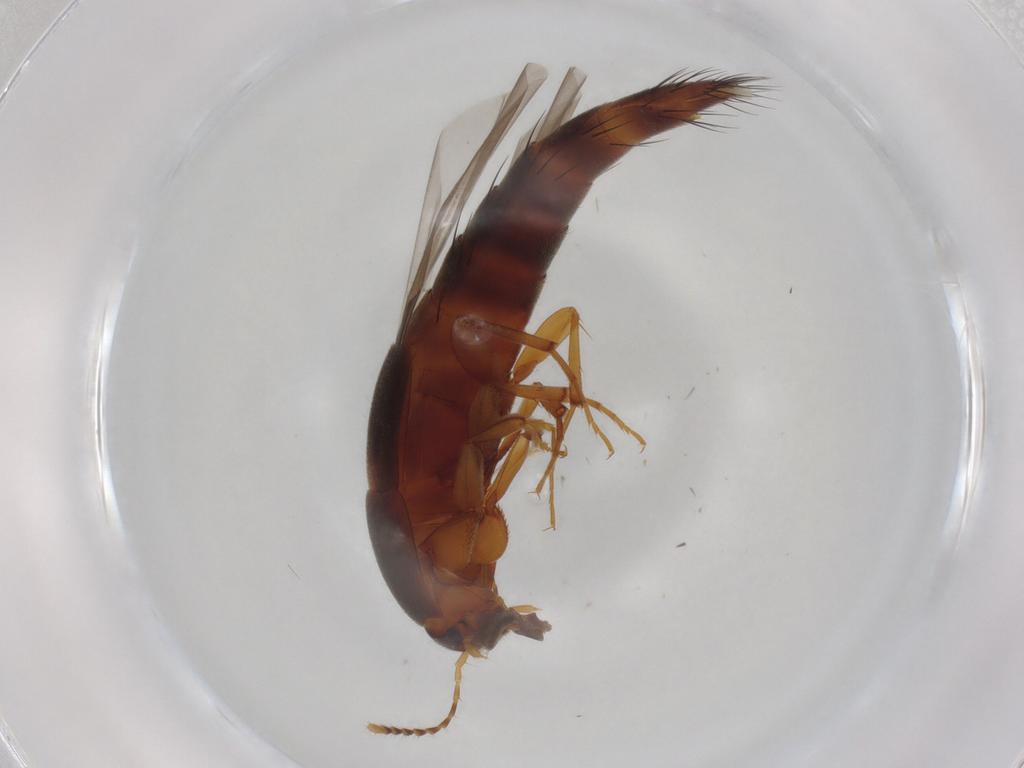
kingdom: Animalia
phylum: Arthropoda
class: Insecta
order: Coleoptera
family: Staphylinidae
